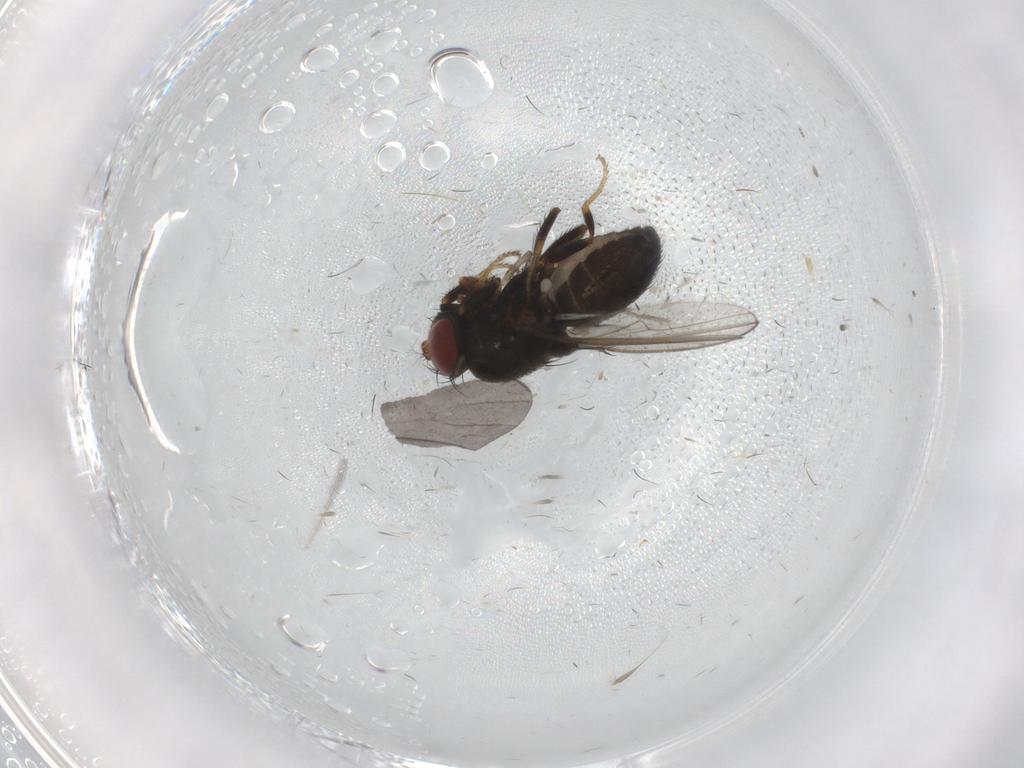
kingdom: Animalia
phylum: Arthropoda
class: Insecta
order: Diptera
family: Cecidomyiidae
